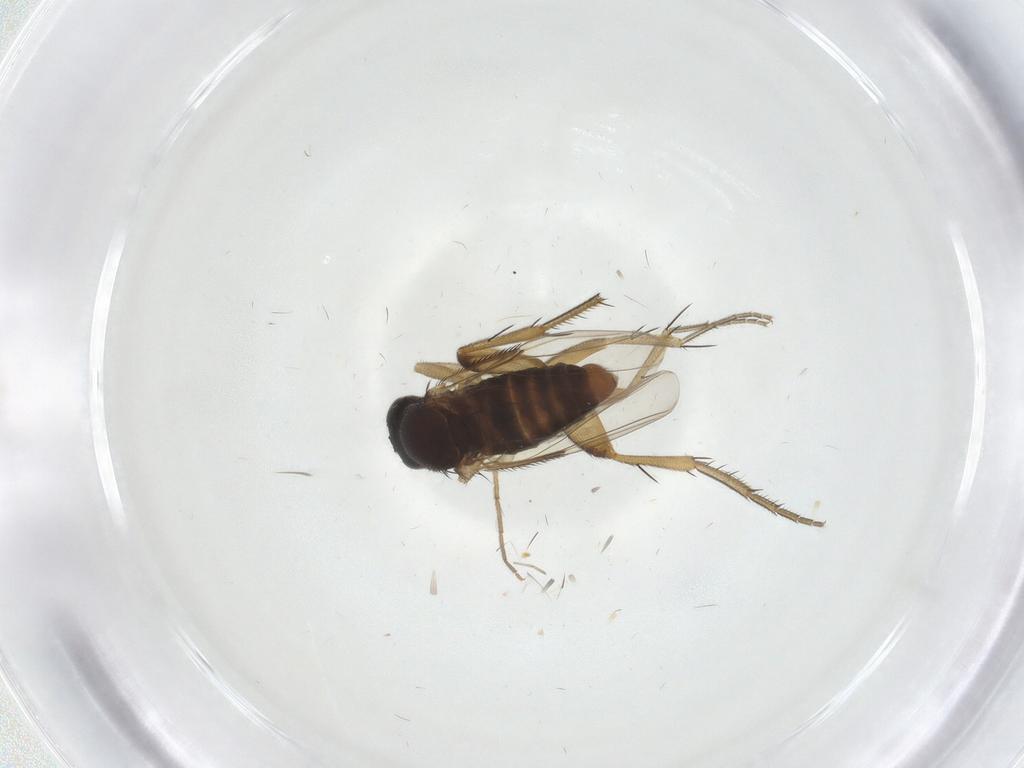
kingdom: Animalia
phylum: Arthropoda
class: Insecta
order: Diptera
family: Phoridae
